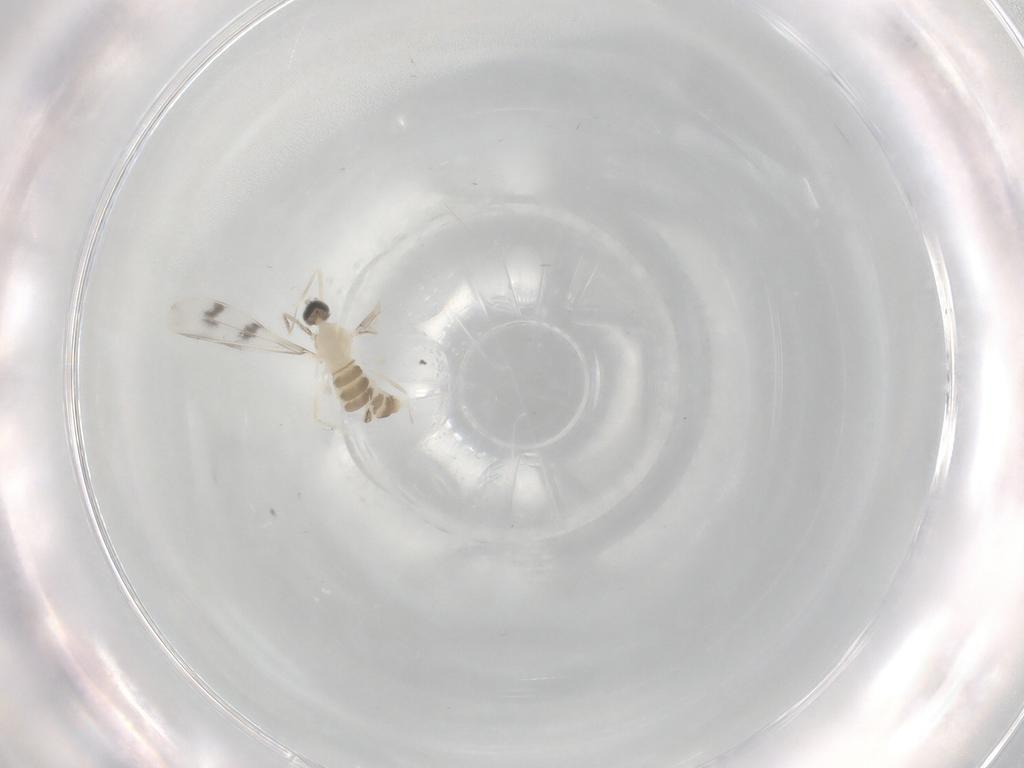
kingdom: Animalia
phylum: Arthropoda
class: Insecta
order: Diptera
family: Cecidomyiidae
